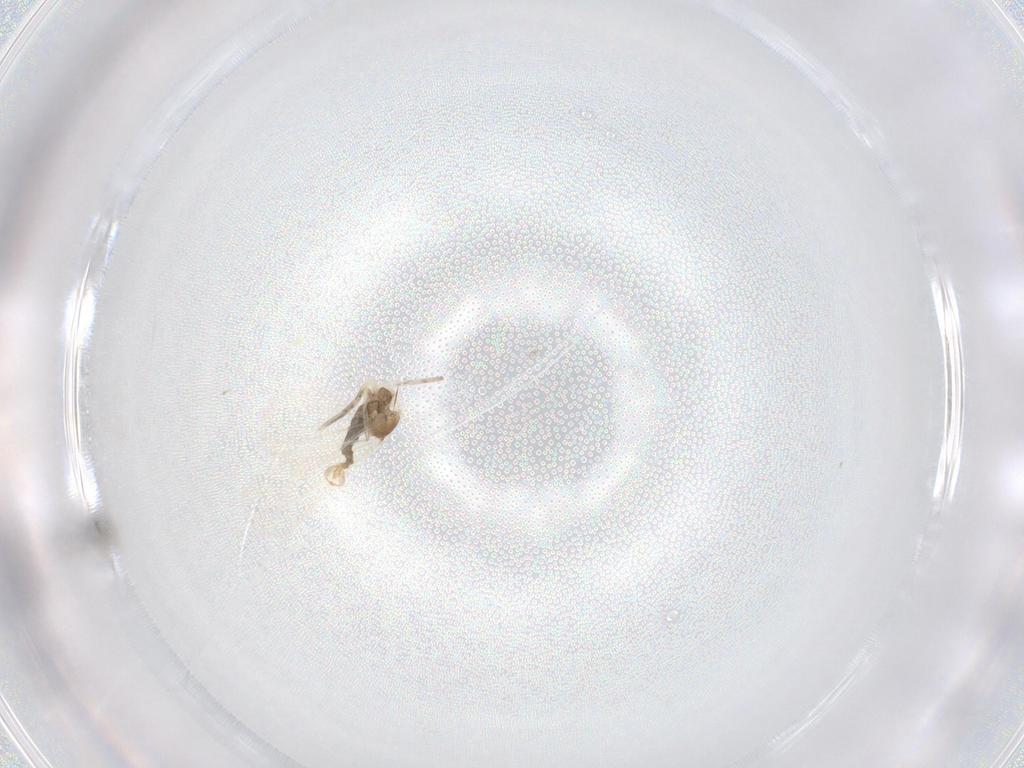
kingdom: Animalia
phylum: Arthropoda
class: Insecta
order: Diptera
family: Cecidomyiidae
